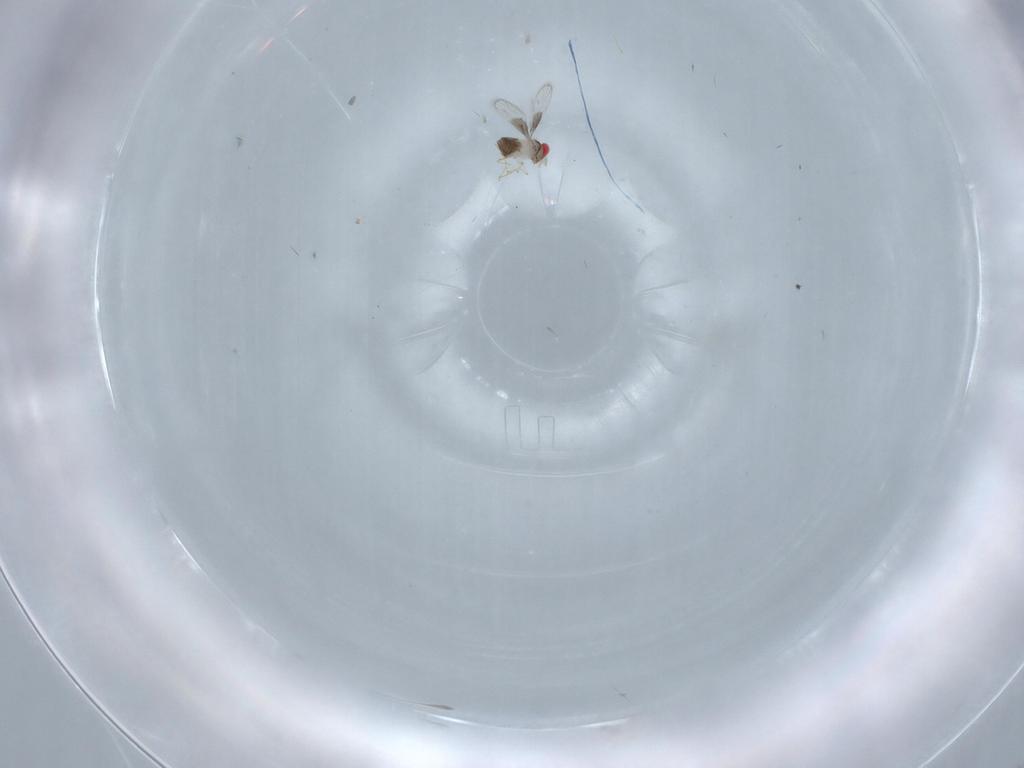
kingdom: Animalia
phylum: Arthropoda
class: Insecta
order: Hymenoptera
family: Trichogrammatidae
